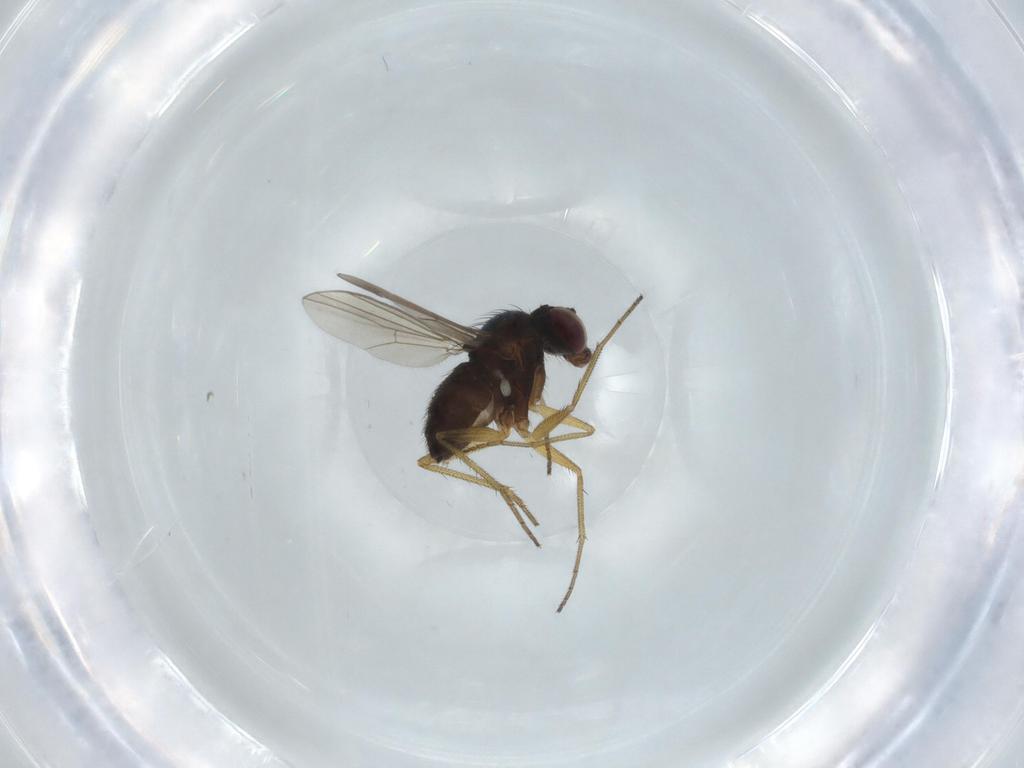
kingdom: Animalia
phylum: Arthropoda
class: Insecta
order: Diptera
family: Dolichopodidae
